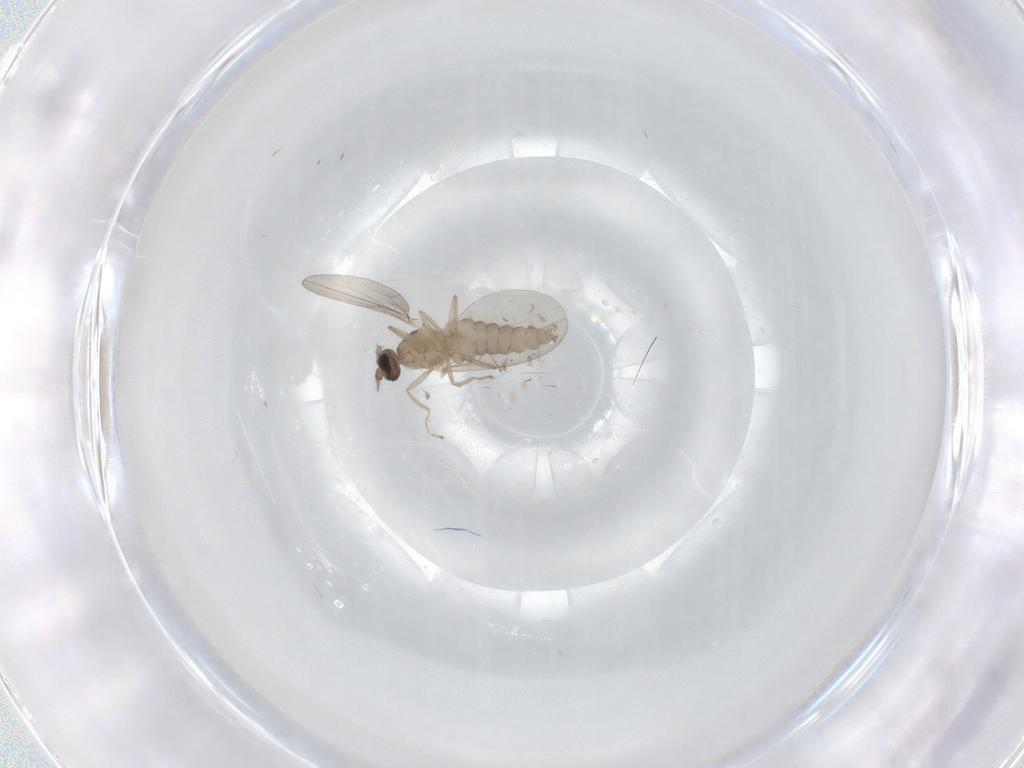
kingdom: Animalia
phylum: Arthropoda
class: Insecta
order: Diptera
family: Cecidomyiidae
